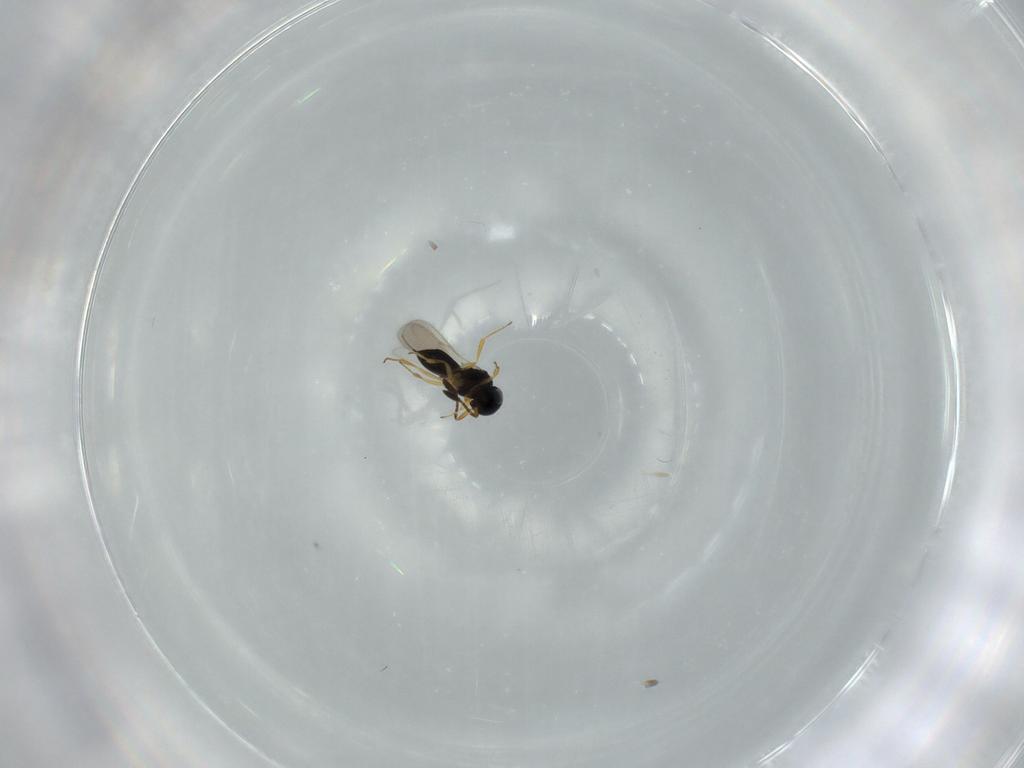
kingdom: Animalia
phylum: Arthropoda
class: Insecta
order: Hymenoptera
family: Scelionidae
